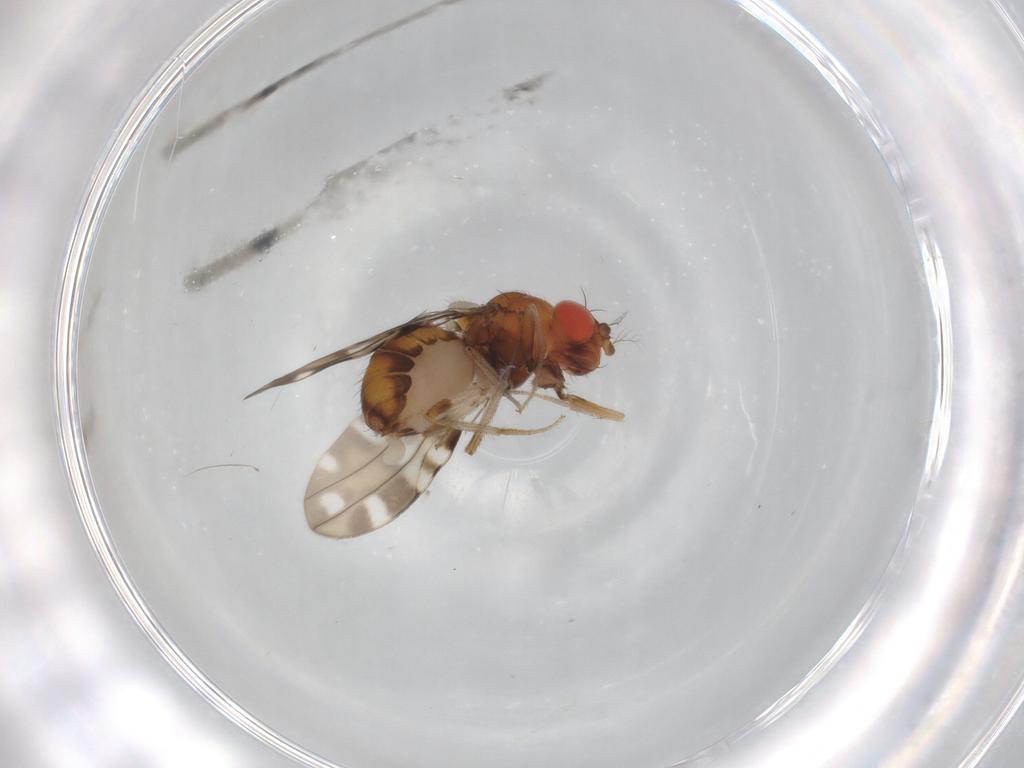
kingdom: Animalia
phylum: Arthropoda
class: Insecta
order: Diptera
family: Drosophilidae
